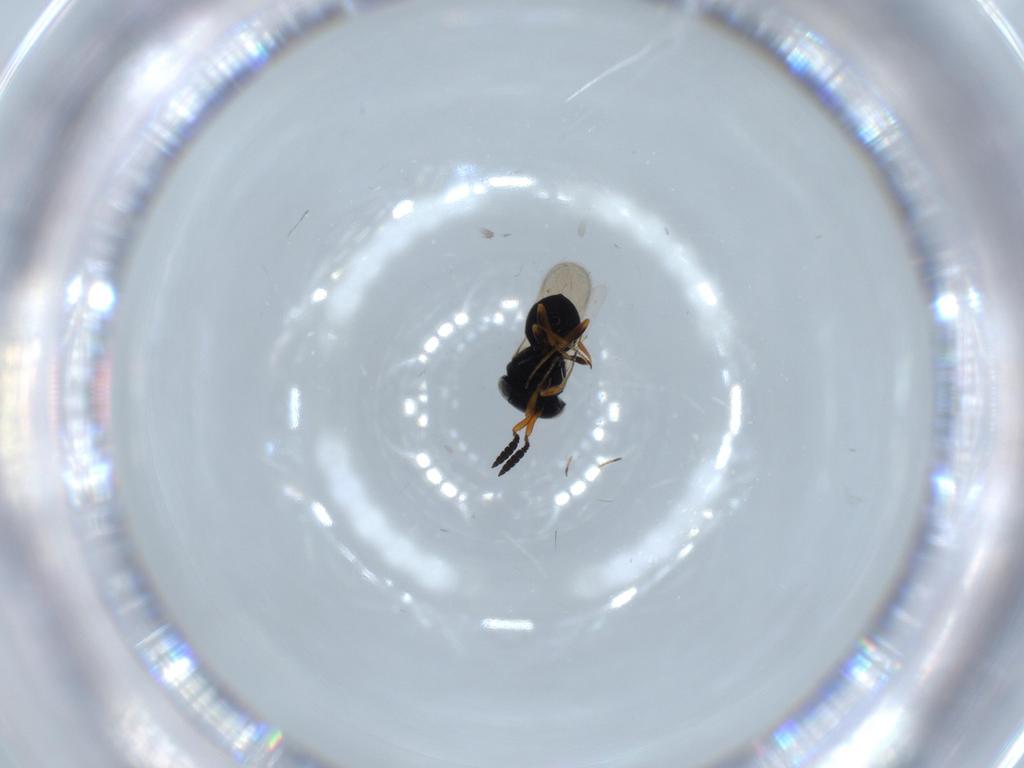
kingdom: Animalia
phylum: Arthropoda
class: Insecta
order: Hymenoptera
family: Scelionidae
